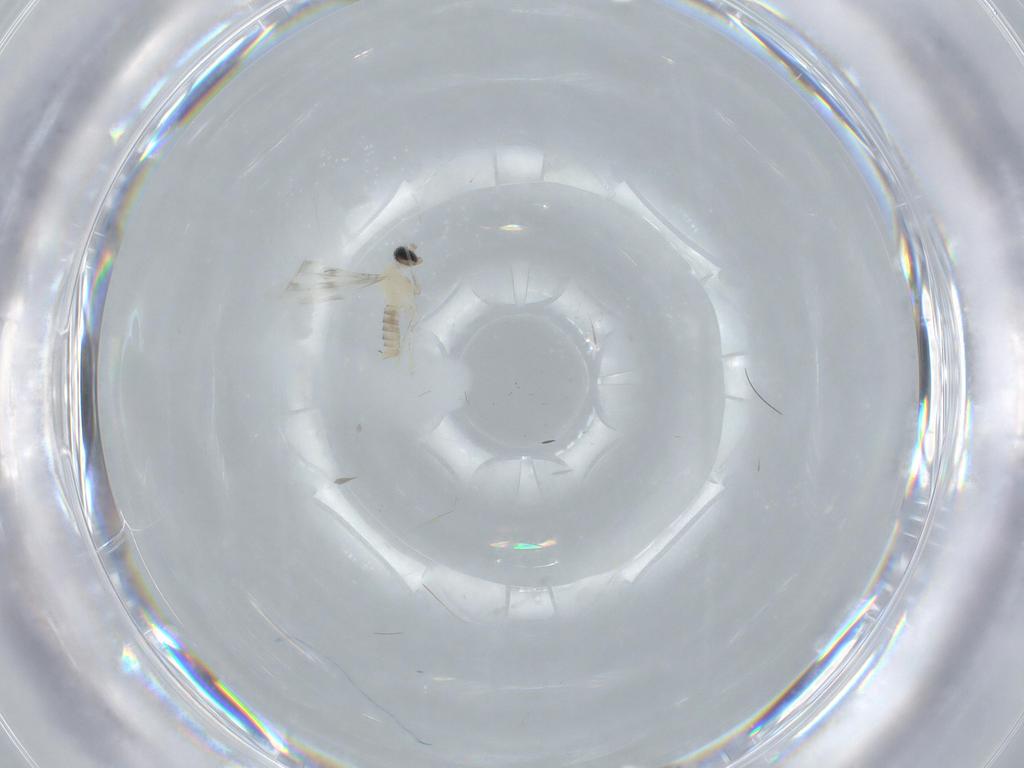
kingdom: Animalia
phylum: Arthropoda
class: Insecta
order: Diptera
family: Cecidomyiidae
